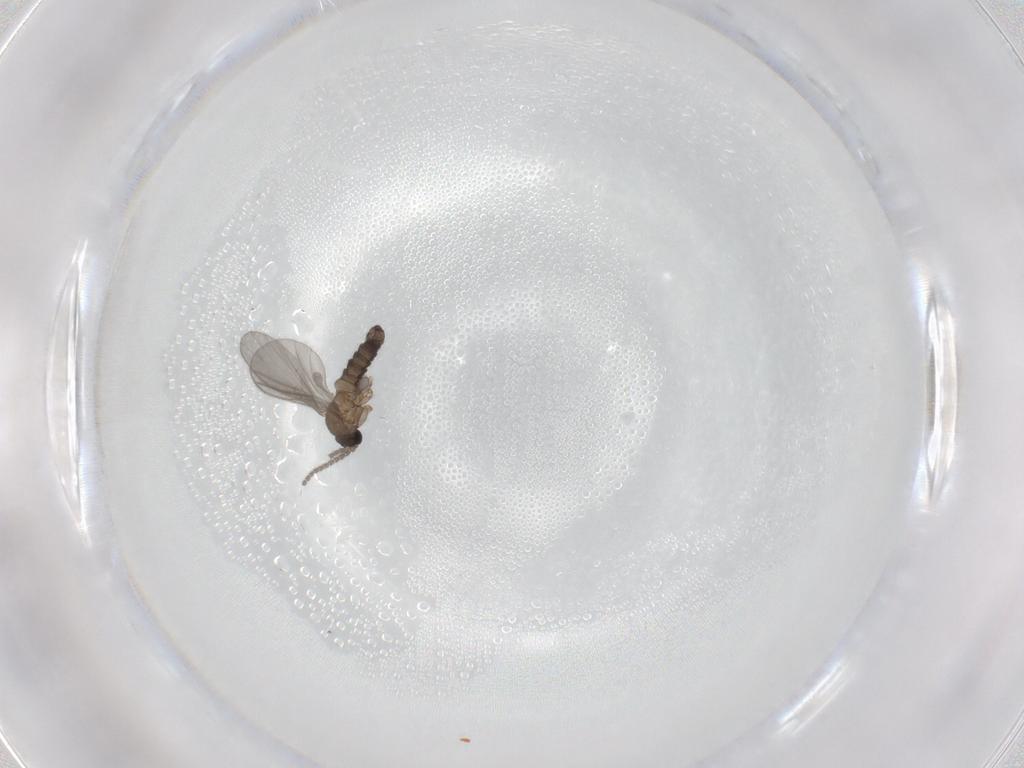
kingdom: Animalia
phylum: Arthropoda
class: Insecta
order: Diptera
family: Sciaridae
